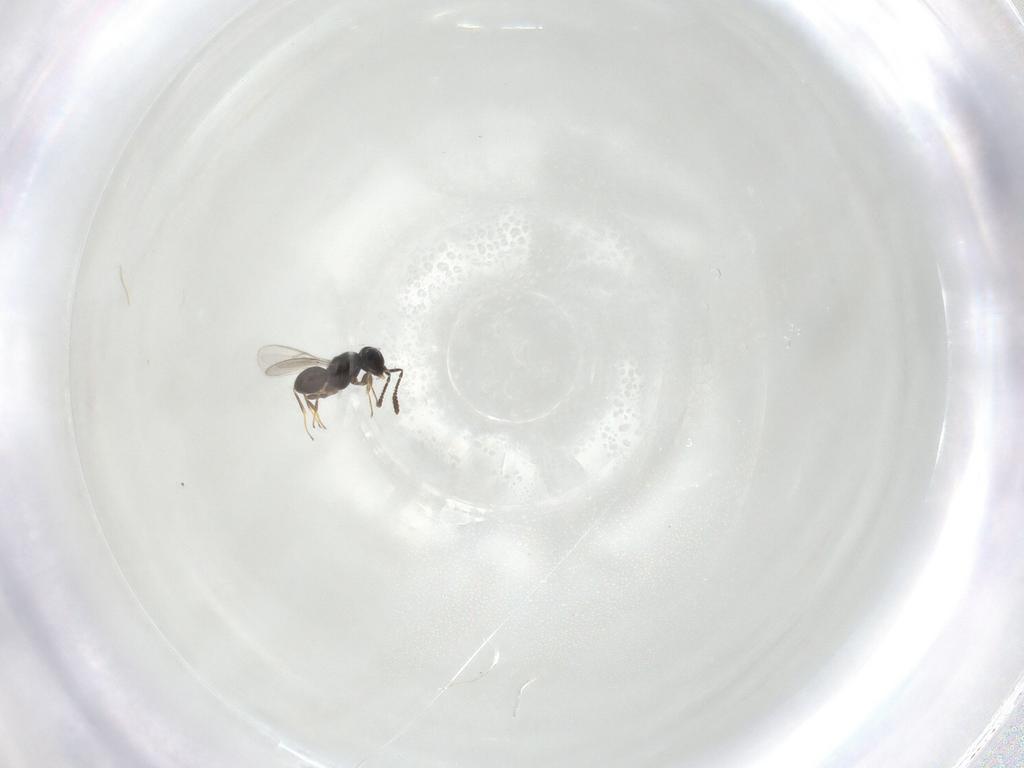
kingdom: Animalia
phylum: Arthropoda
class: Insecta
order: Hymenoptera
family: Scelionidae
